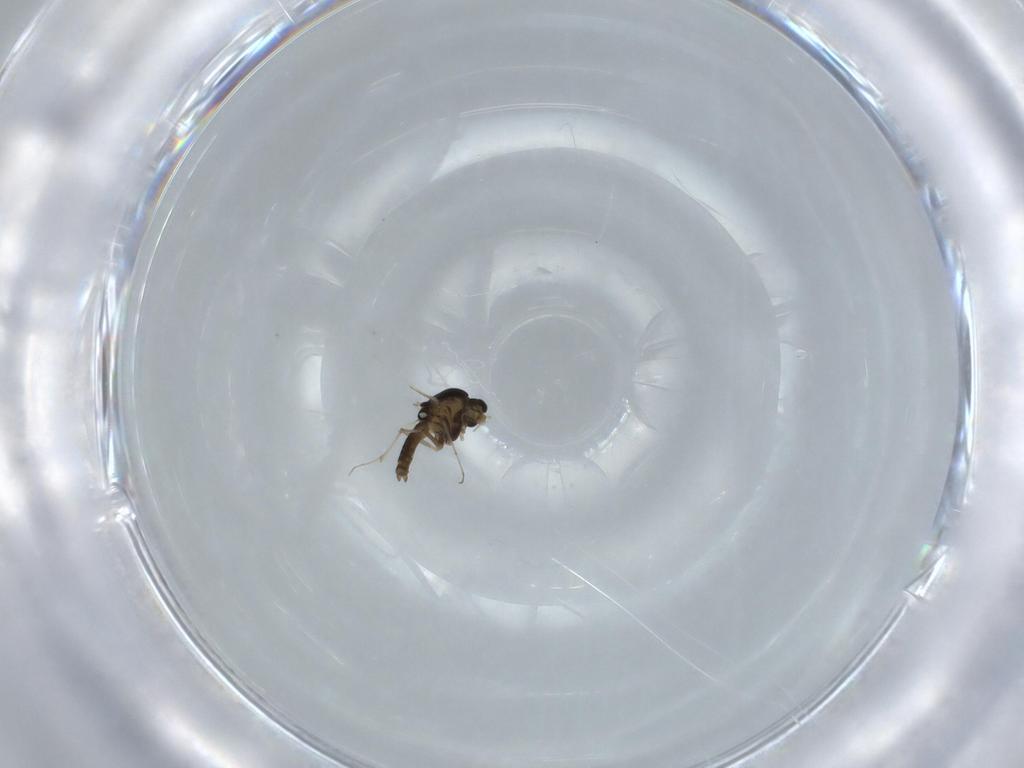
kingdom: Animalia
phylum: Arthropoda
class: Insecta
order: Diptera
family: Chironomidae
